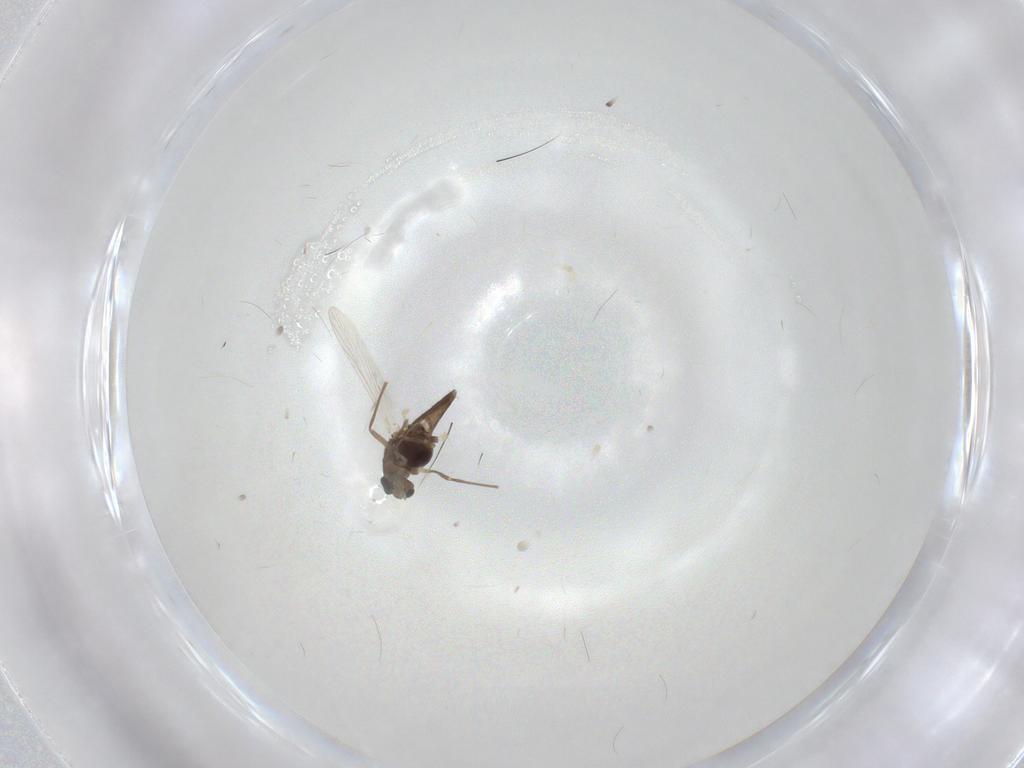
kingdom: Animalia
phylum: Arthropoda
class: Insecta
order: Diptera
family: Chironomidae
